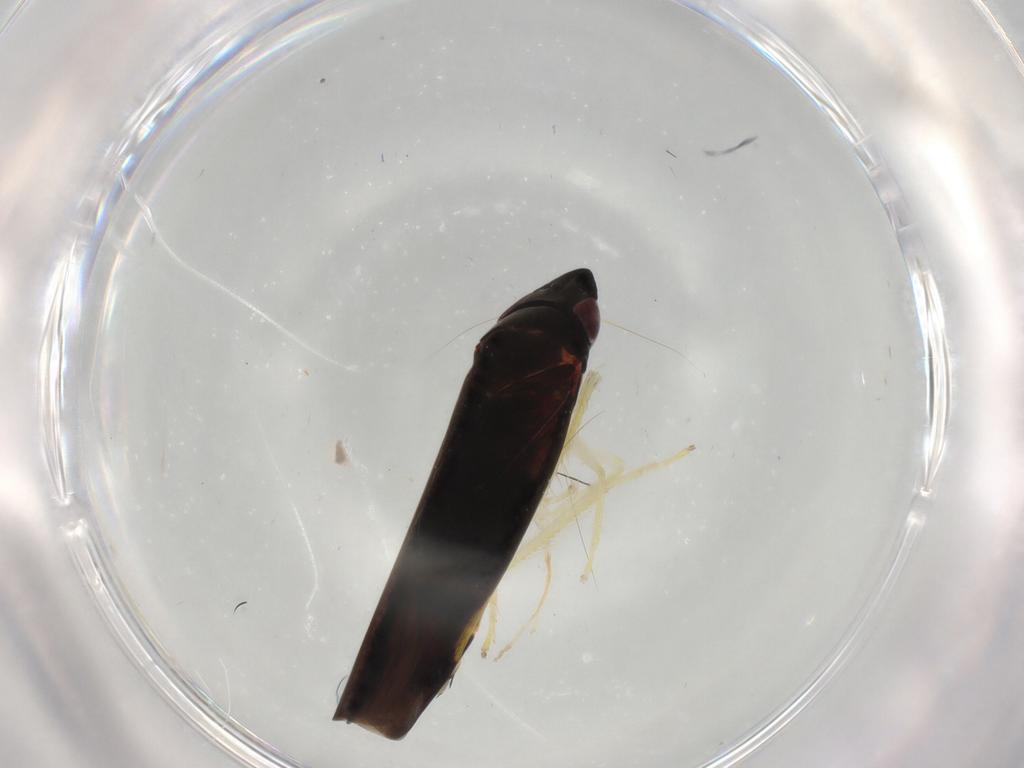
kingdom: Animalia
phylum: Arthropoda
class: Insecta
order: Hemiptera
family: Cicadellidae
